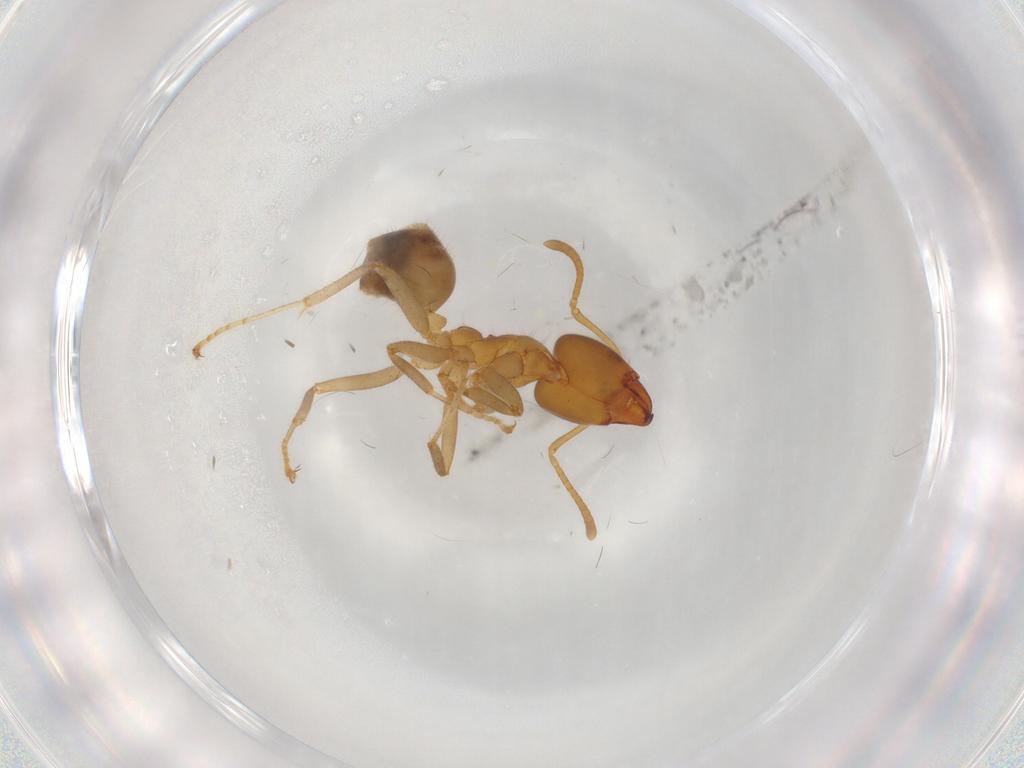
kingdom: Animalia
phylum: Arthropoda
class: Insecta
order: Hymenoptera
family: Formicidae
